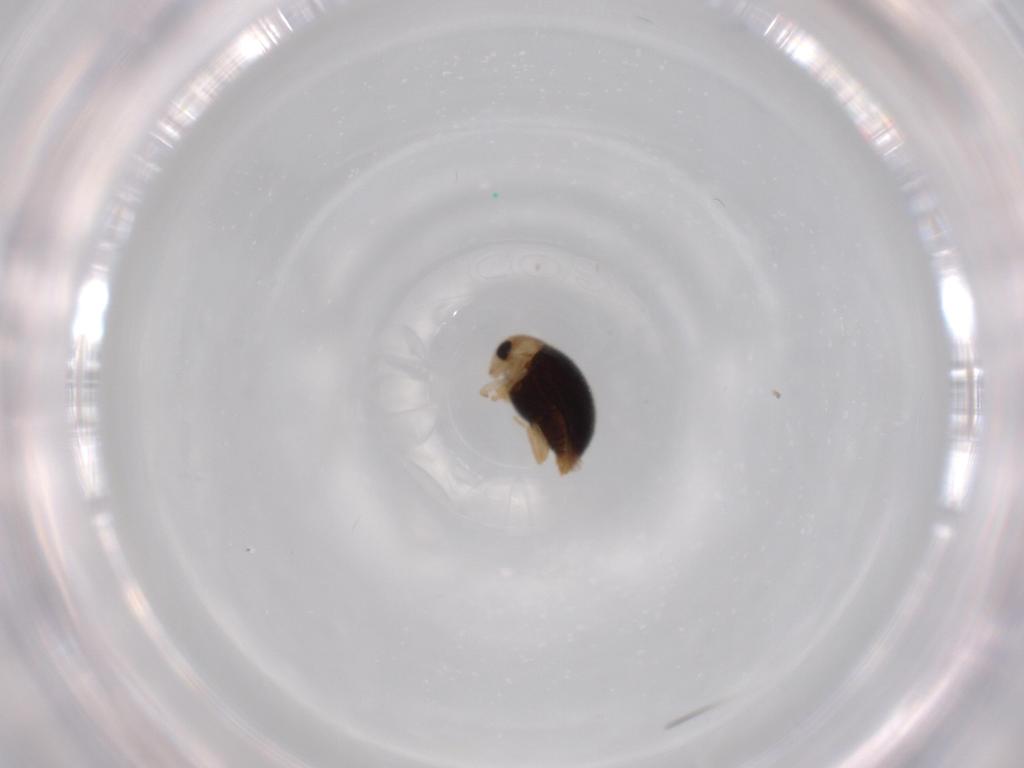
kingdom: Animalia
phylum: Arthropoda
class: Insecta
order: Coleoptera
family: Coccinellidae
